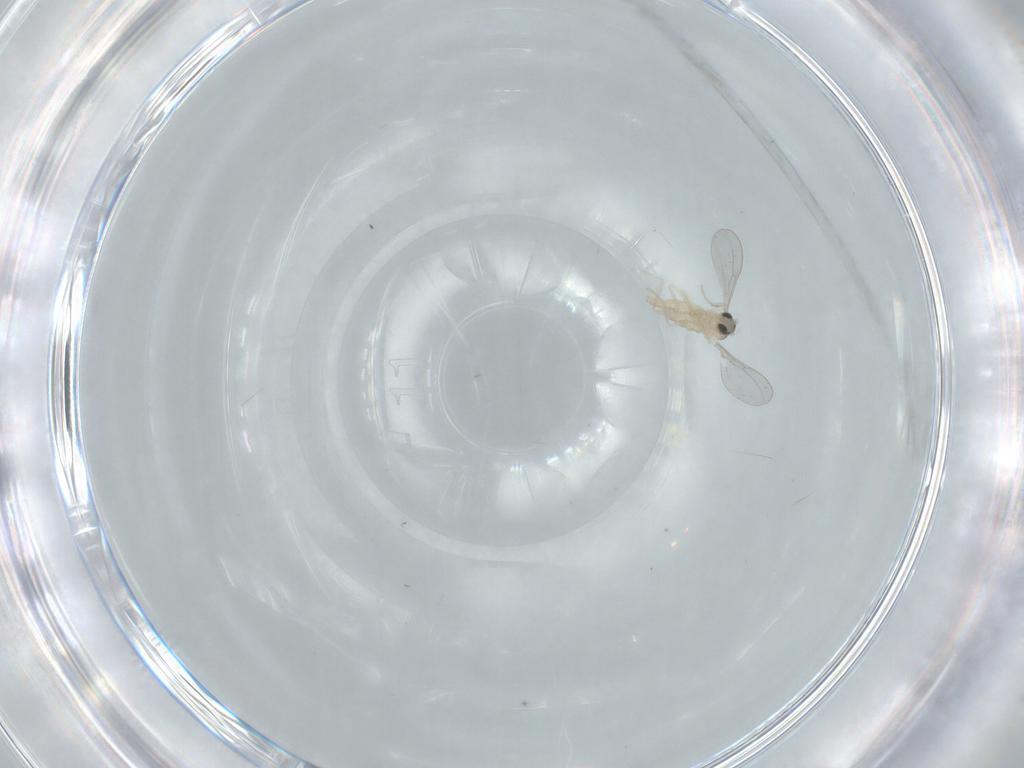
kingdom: Animalia
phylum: Arthropoda
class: Insecta
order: Diptera
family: Cecidomyiidae
